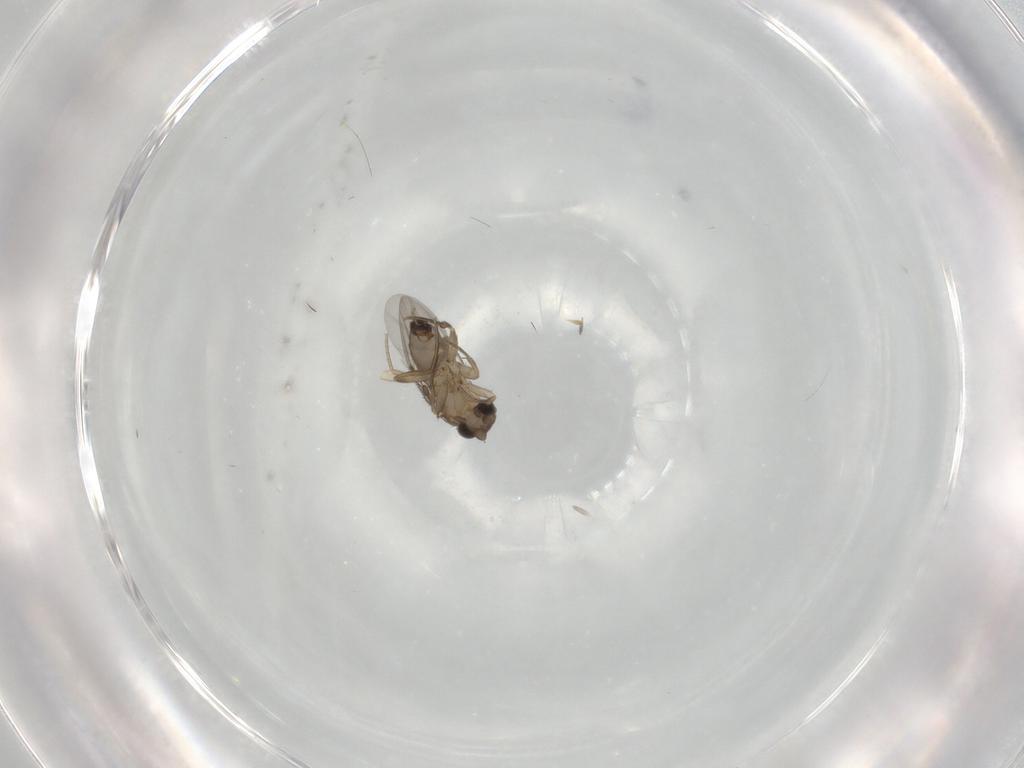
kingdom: Animalia
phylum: Arthropoda
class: Insecta
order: Diptera
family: Phoridae
